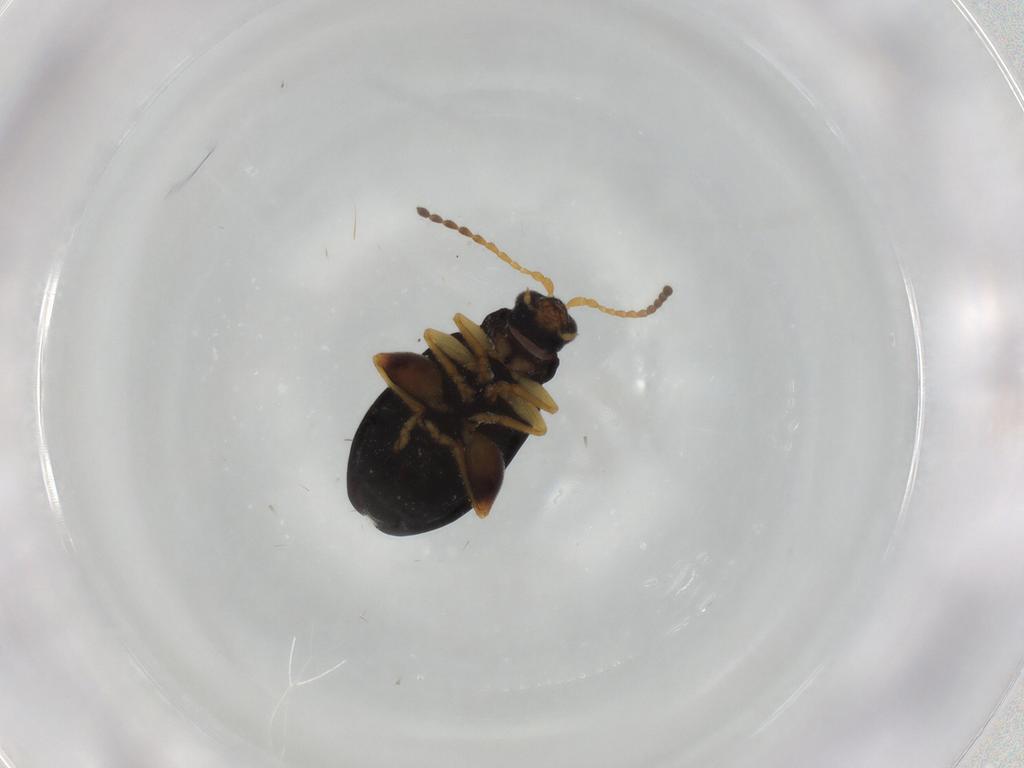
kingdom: Animalia
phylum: Arthropoda
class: Insecta
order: Coleoptera
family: Chrysomelidae
